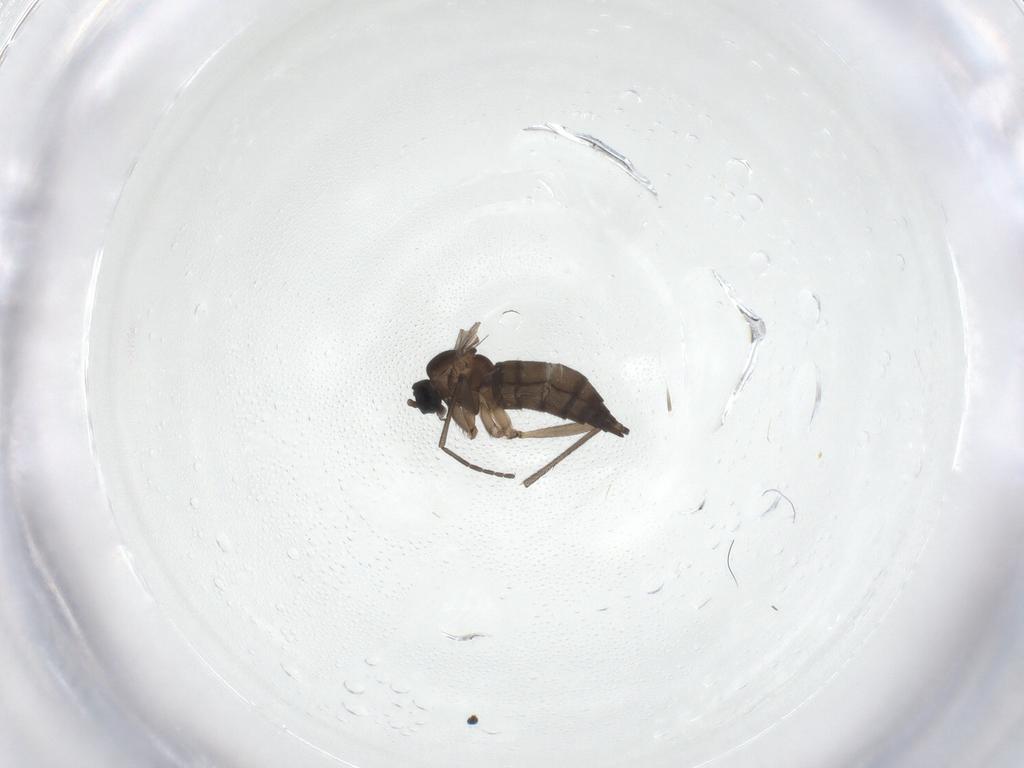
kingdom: Animalia
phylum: Arthropoda
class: Insecta
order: Diptera
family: Sciaridae
